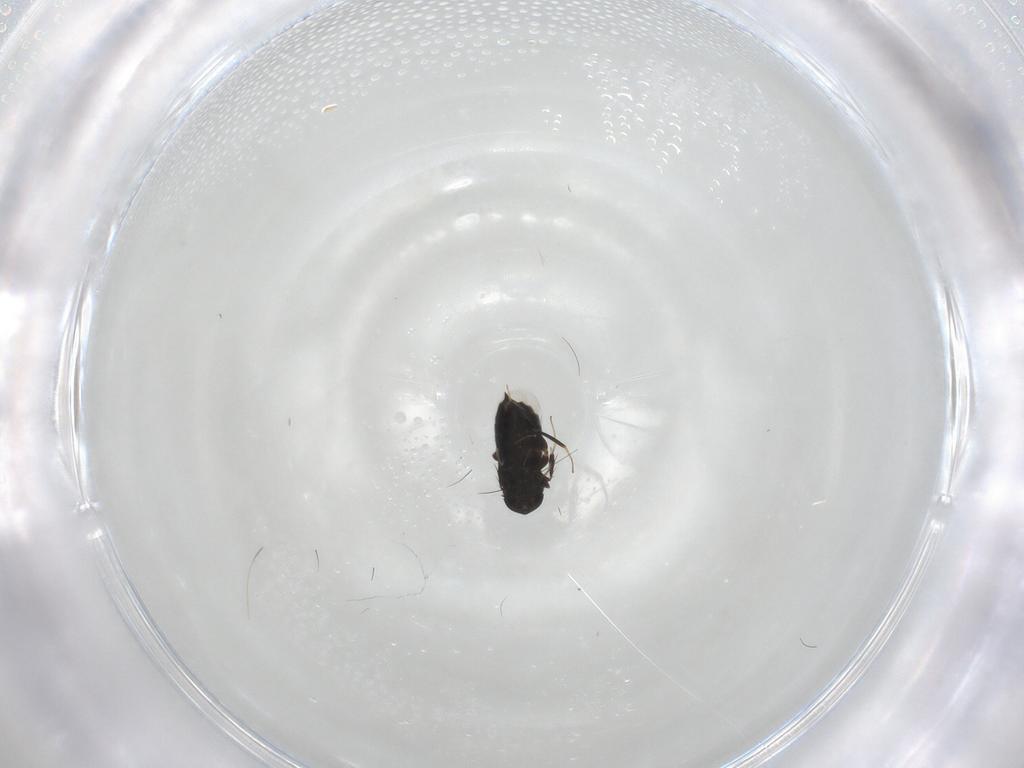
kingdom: Animalia
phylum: Arthropoda
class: Insecta
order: Hymenoptera
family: Signiphoridae
